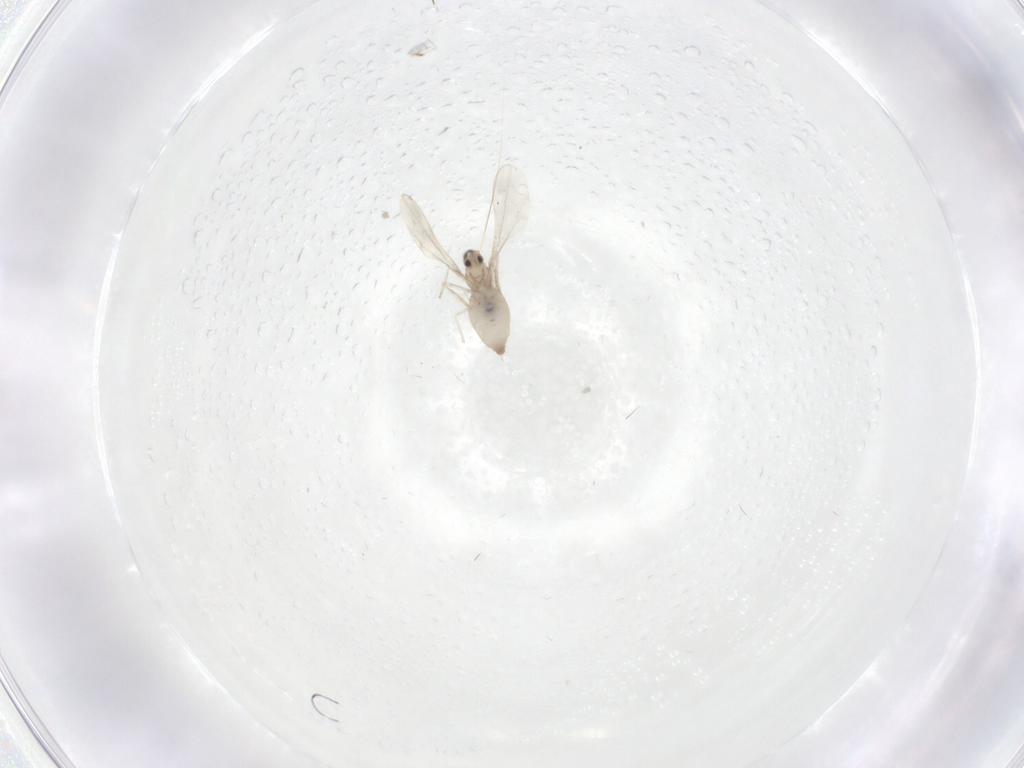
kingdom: Animalia
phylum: Arthropoda
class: Insecta
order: Diptera
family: Cecidomyiidae
